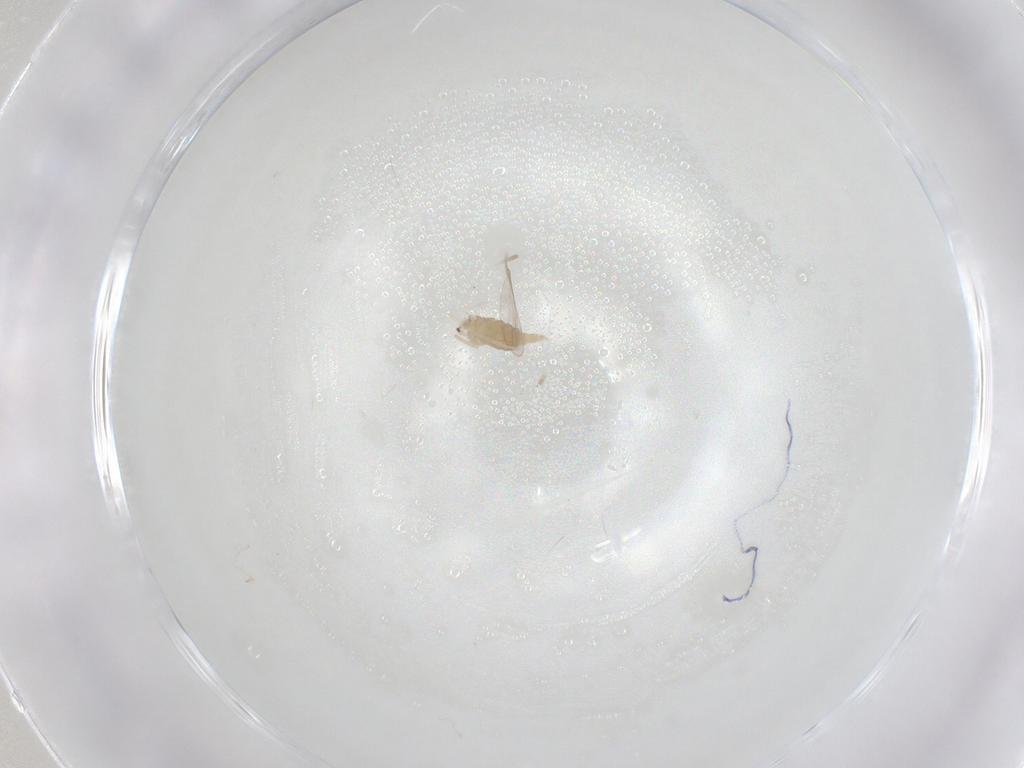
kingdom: Animalia
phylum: Arthropoda
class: Insecta
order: Diptera
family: Cecidomyiidae
